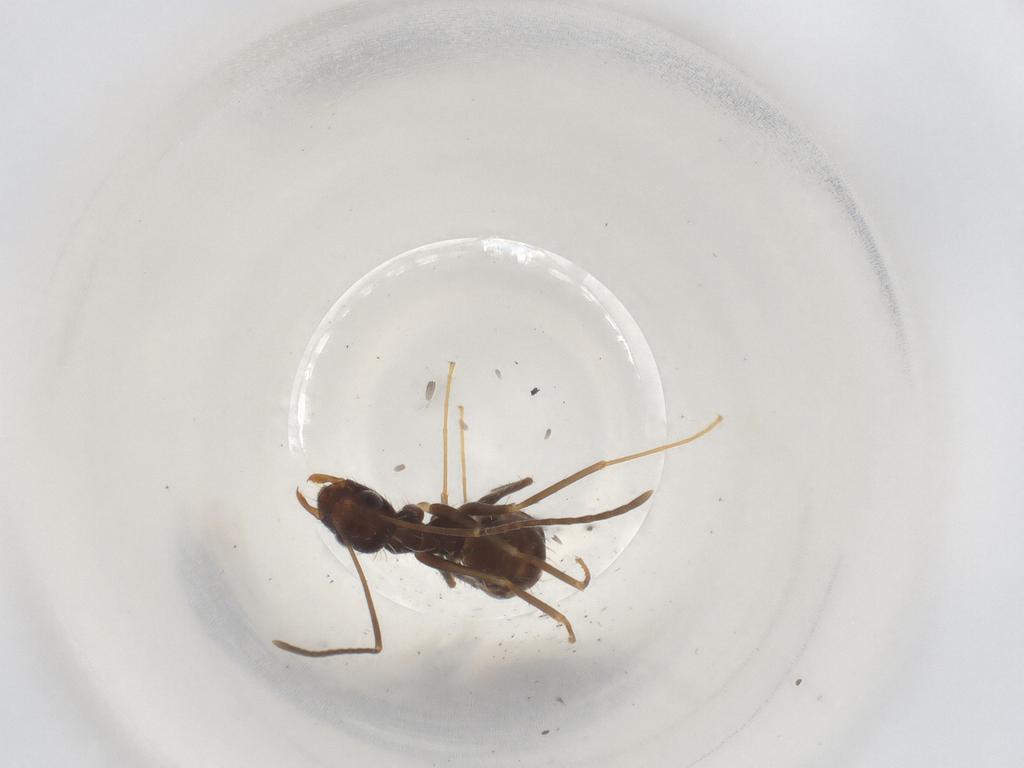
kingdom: Animalia
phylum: Arthropoda
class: Insecta
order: Hymenoptera
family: Formicidae
